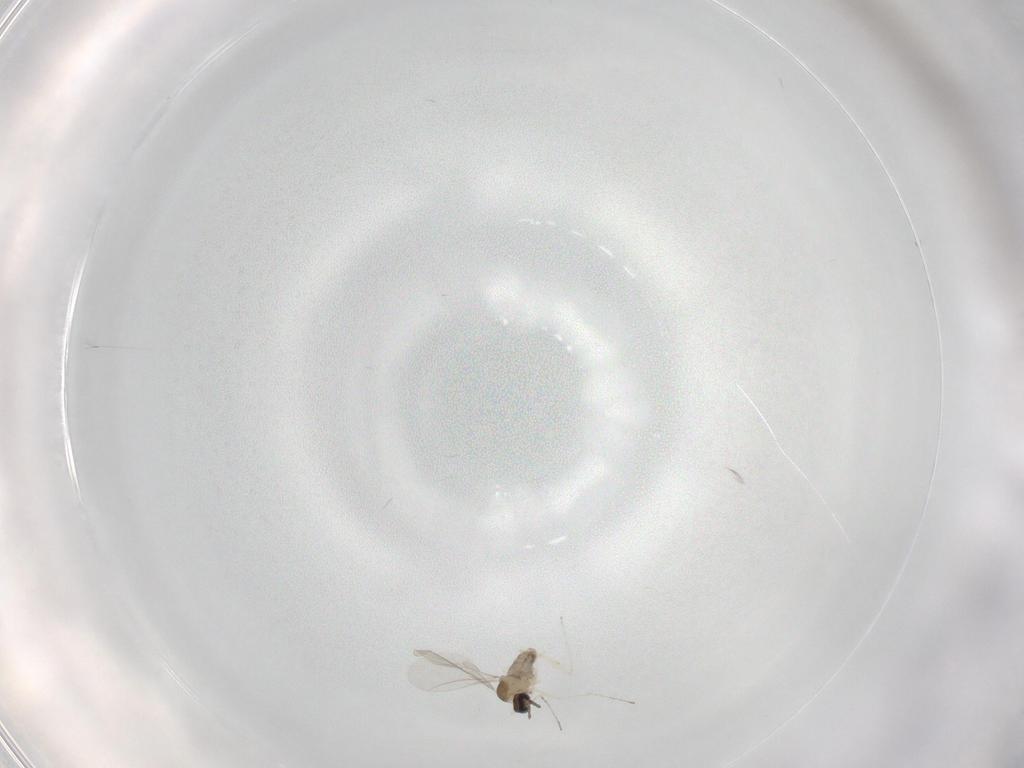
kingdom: Animalia
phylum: Arthropoda
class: Insecta
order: Diptera
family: Cecidomyiidae
